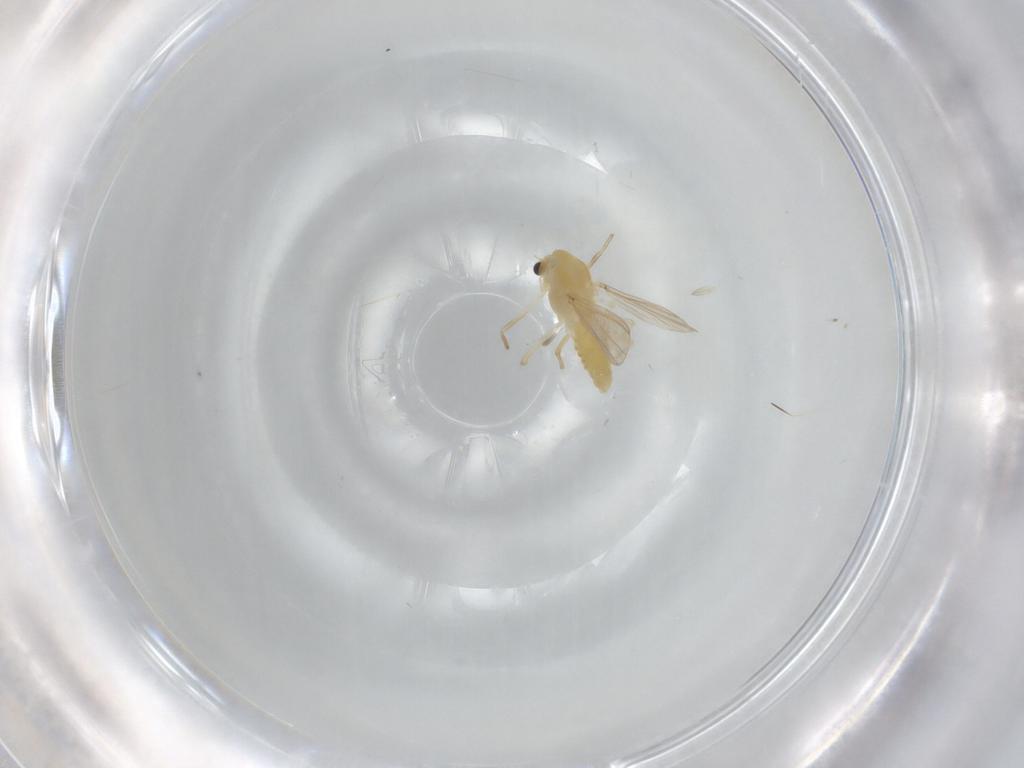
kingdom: Animalia
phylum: Arthropoda
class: Insecta
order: Diptera
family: Chironomidae
